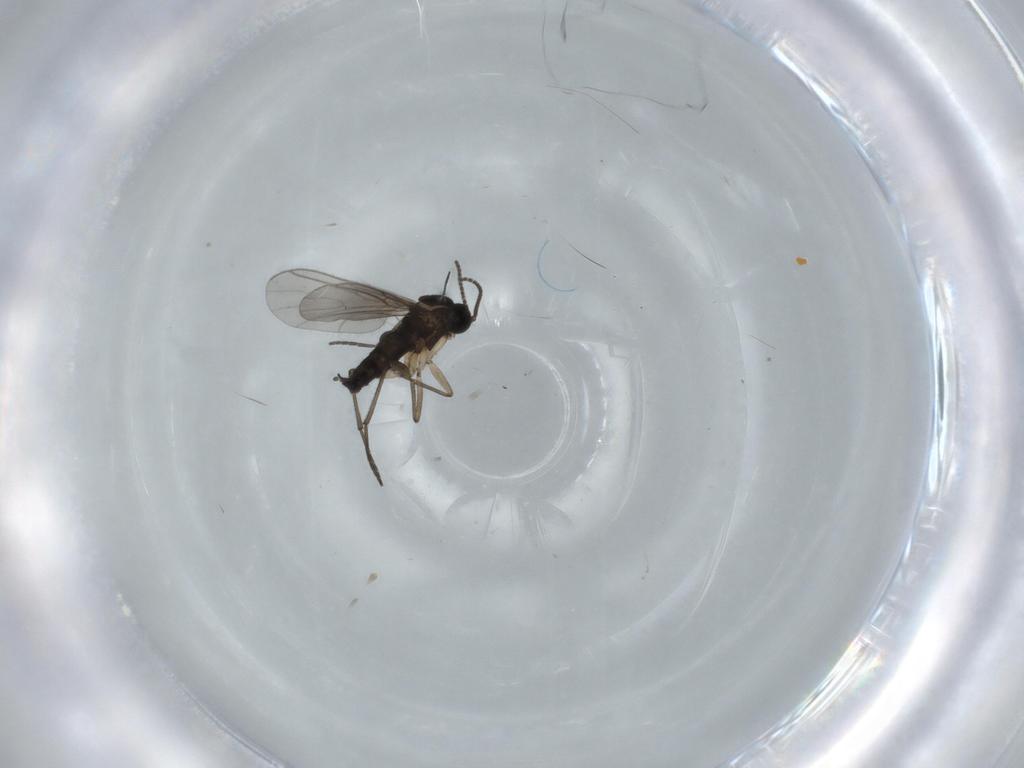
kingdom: Animalia
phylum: Arthropoda
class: Insecta
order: Diptera
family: Sciaridae
